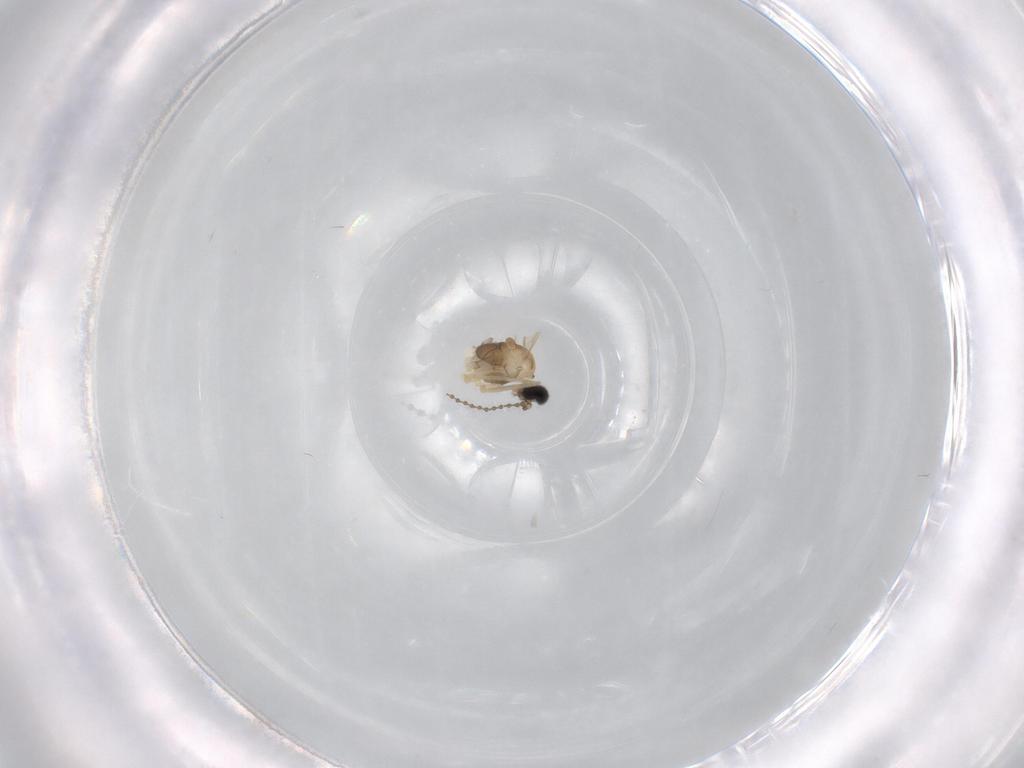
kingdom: Animalia
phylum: Arthropoda
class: Insecta
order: Diptera
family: Cecidomyiidae
